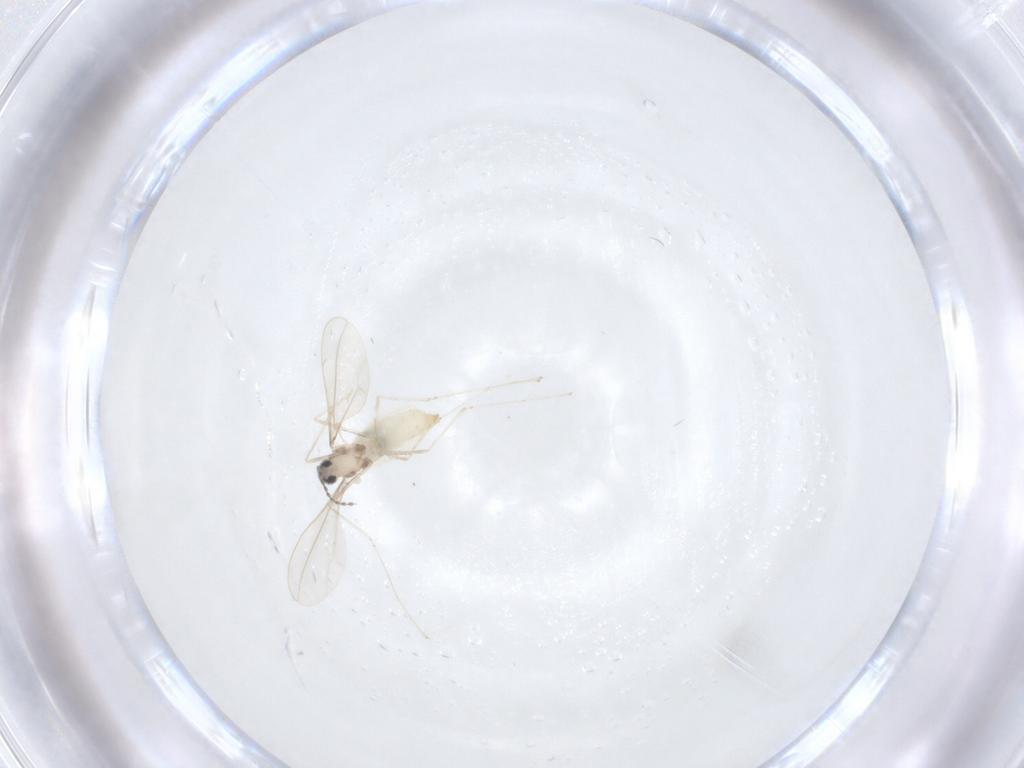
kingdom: Animalia
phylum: Arthropoda
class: Insecta
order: Diptera
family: Cecidomyiidae
